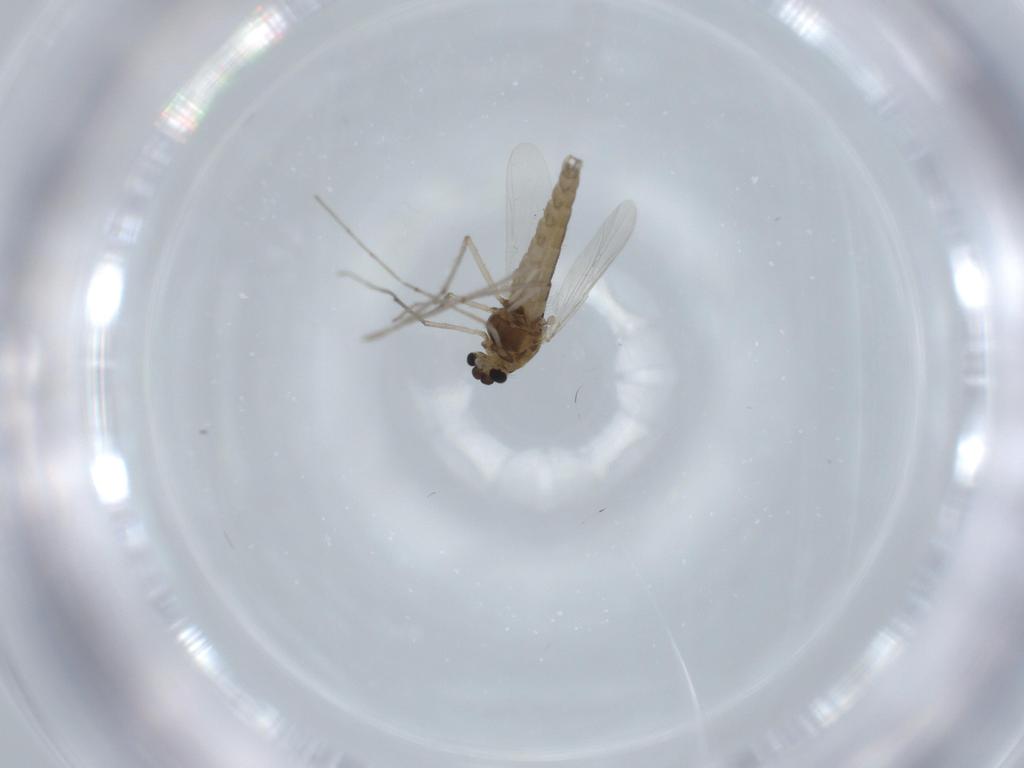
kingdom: Animalia
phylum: Arthropoda
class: Insecta
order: Diptera
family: Chironomidae
